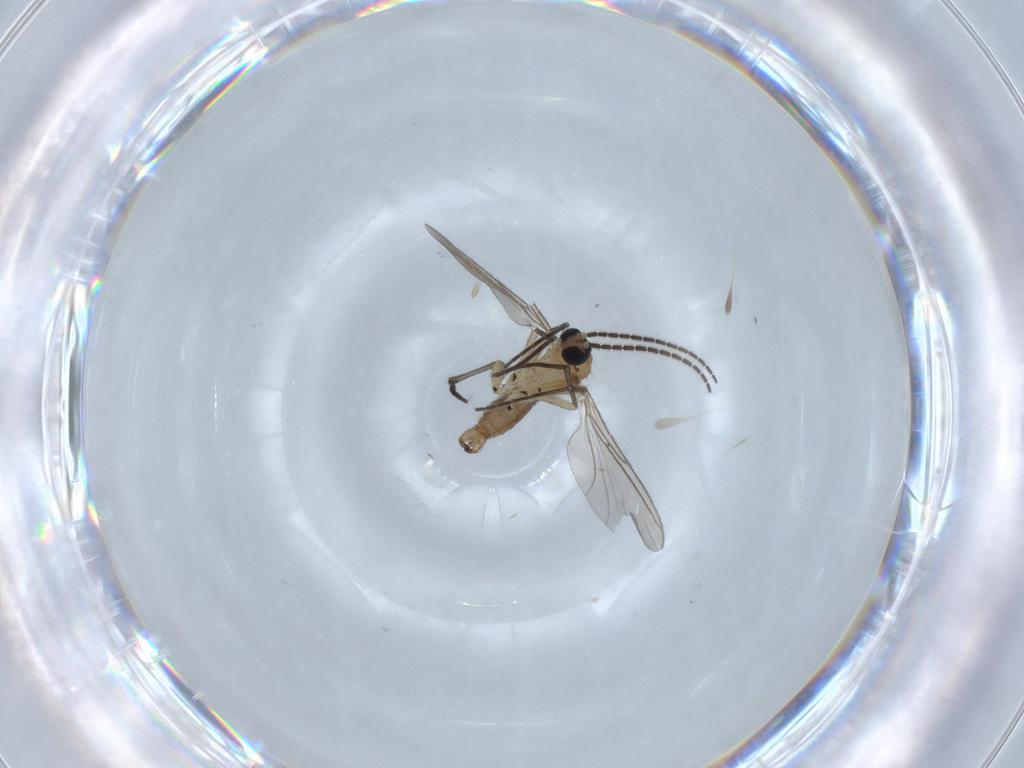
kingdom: Animalia
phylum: Arthropoda
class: Insecta
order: Diptera
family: Sciaridae
